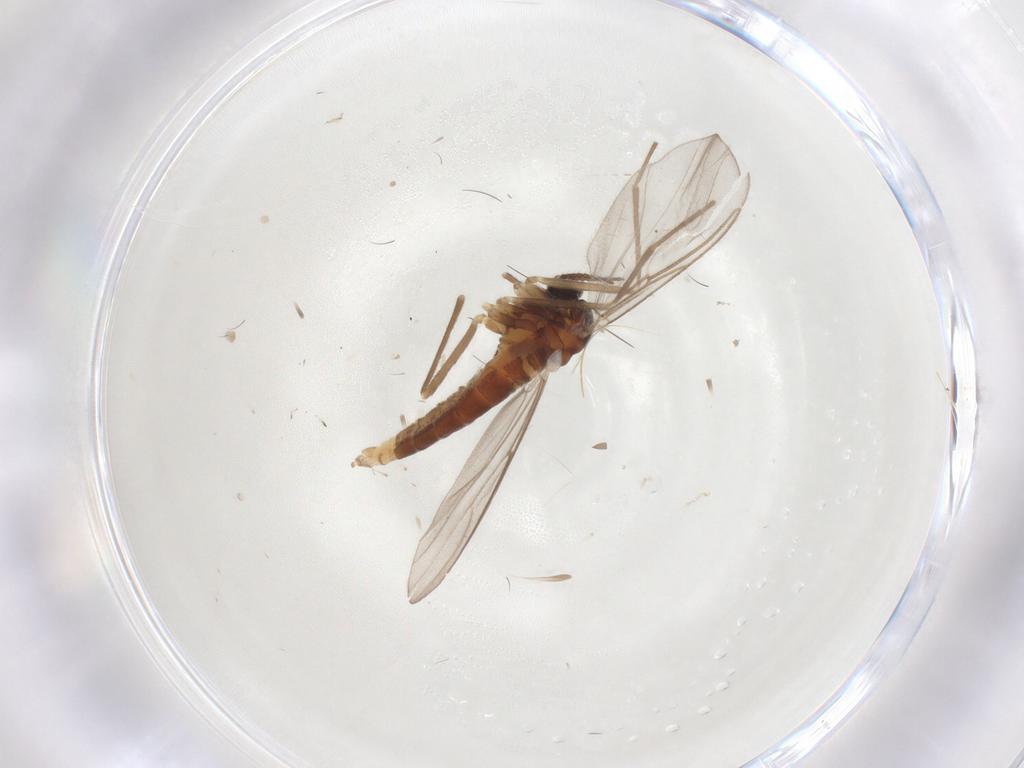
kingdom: Animalia
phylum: Arthropoda
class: Insecta
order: Diptera
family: Cecidomyiidae
